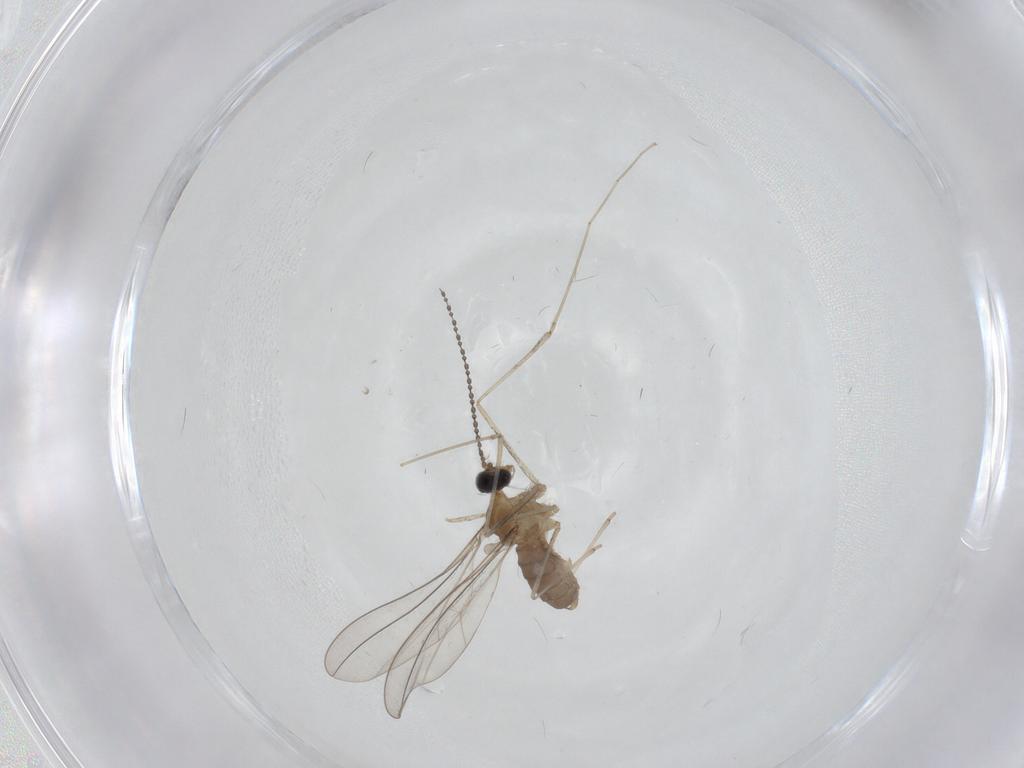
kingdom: Animalia
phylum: Arthropoda
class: Insecta
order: Diptera
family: Cecidomyiidae
